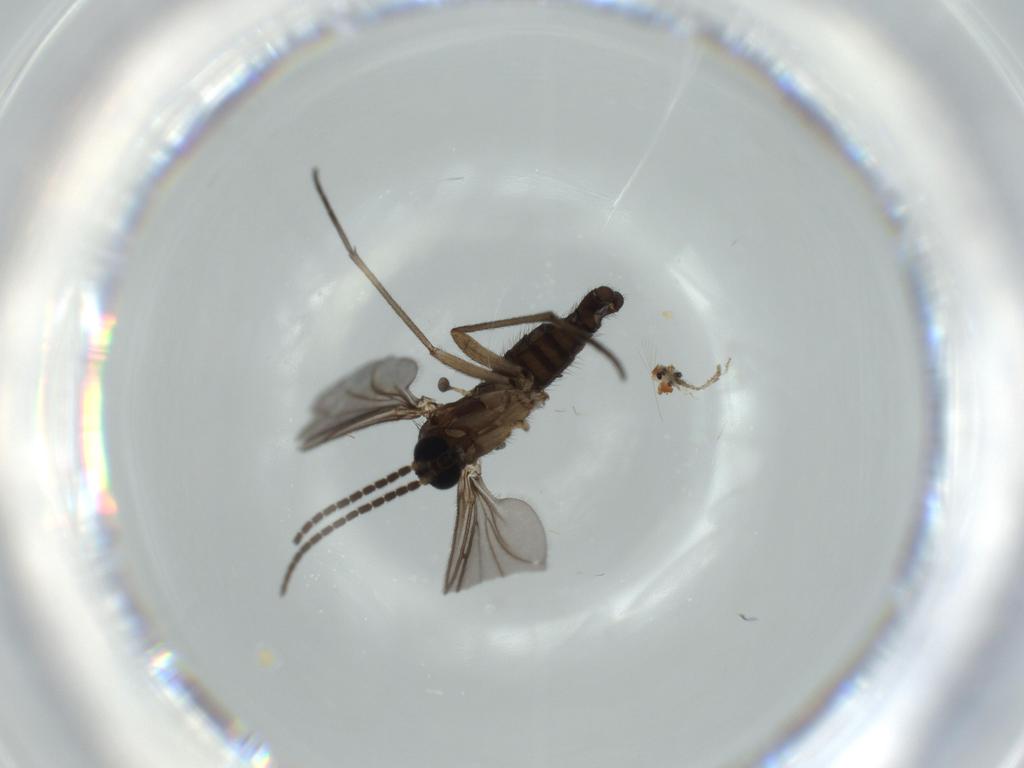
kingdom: Animalia
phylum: Arthropoda
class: Insecta
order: Diptera
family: Sciaridae
